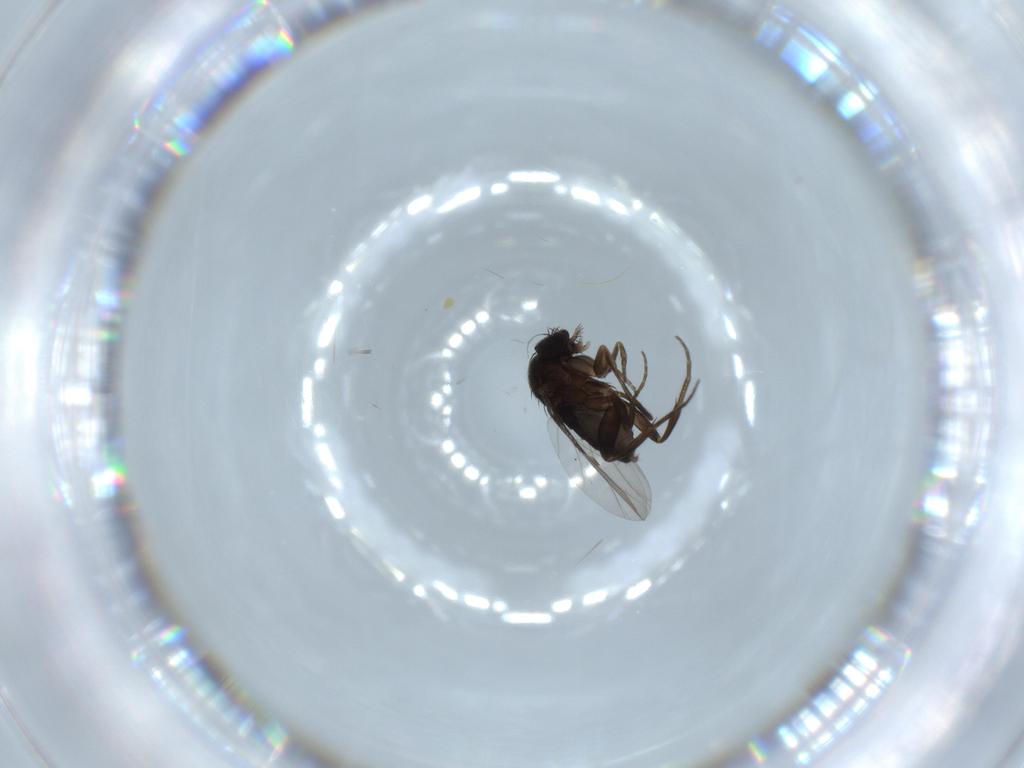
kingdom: Animalia
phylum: Arthropoda
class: Insecta
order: Diptera
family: Phoridae
